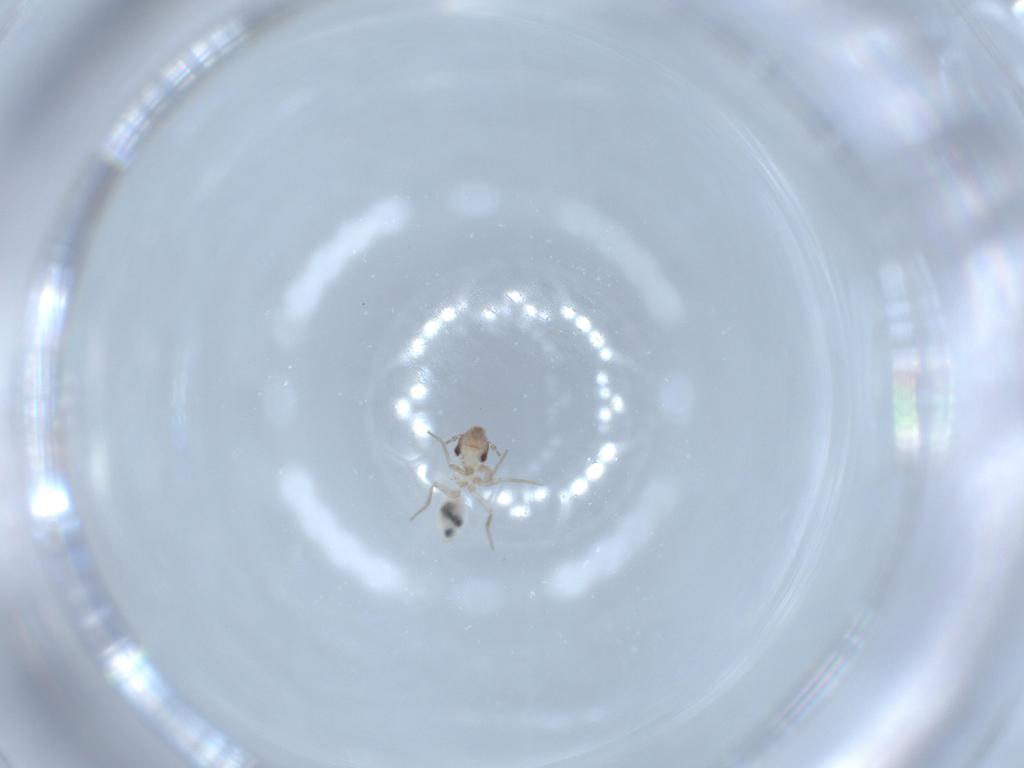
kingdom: Animalia
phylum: Arthropoda
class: Insecta
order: Psocodea
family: Lepidopsocidae
